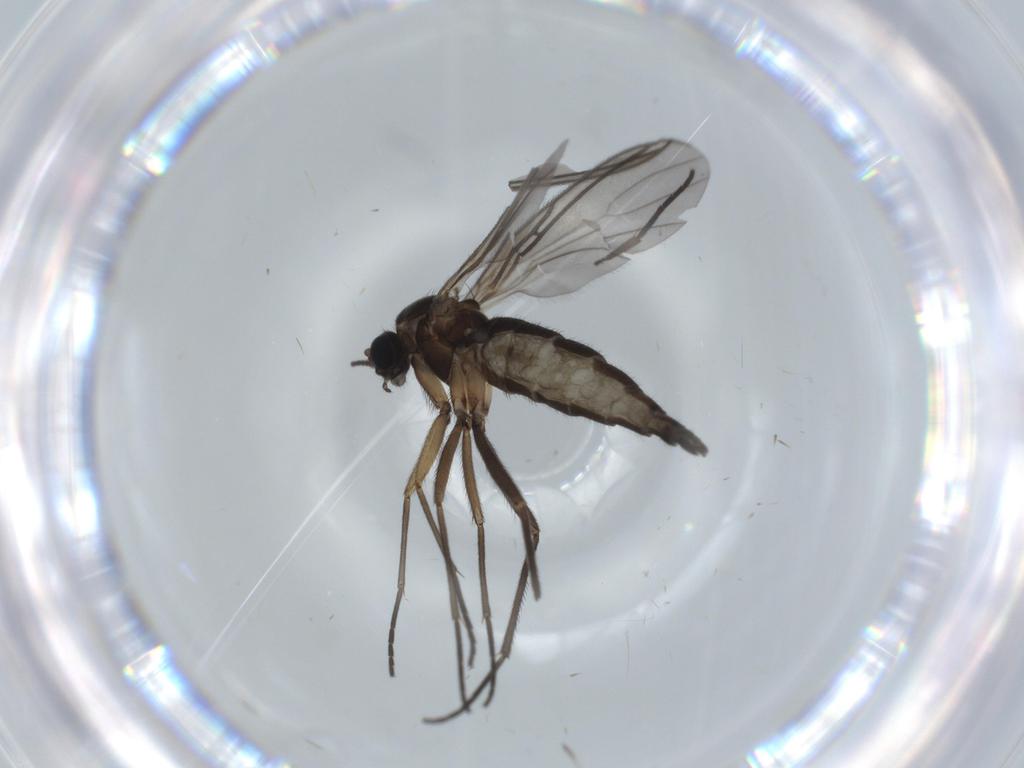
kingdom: Animalia
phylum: Arthropoda
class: Insecta
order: Diptera
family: Sciaridae
